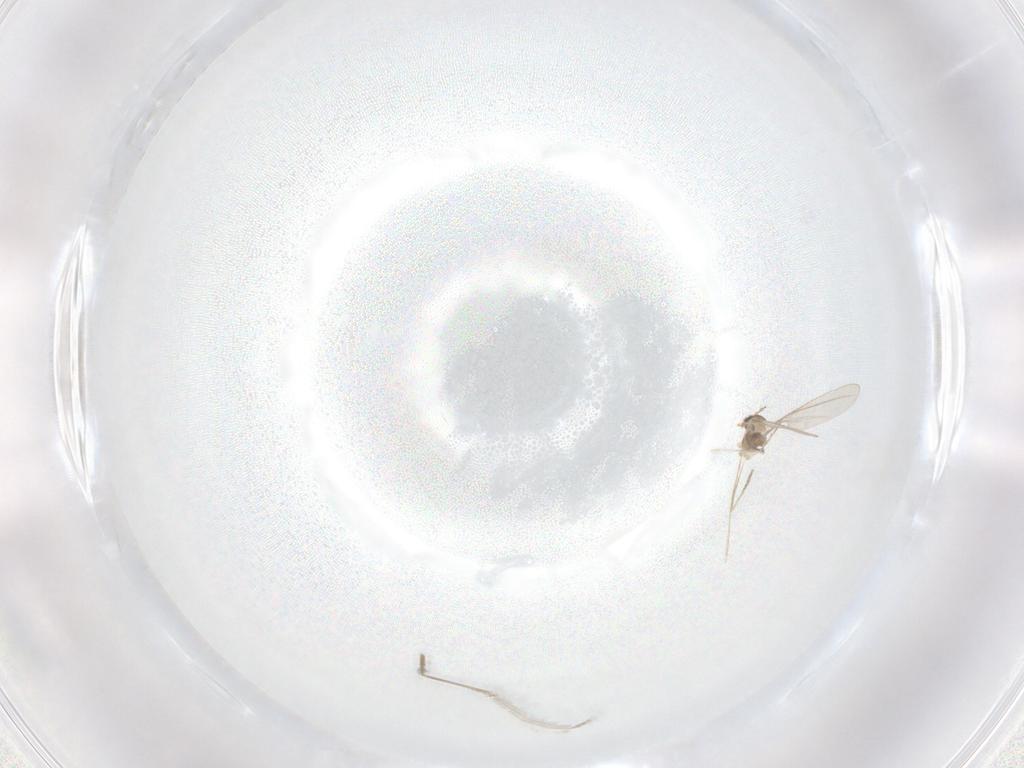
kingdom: Animalia
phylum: Arthropoda
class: Insecta
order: Diptera
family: Cecidomyiidae
